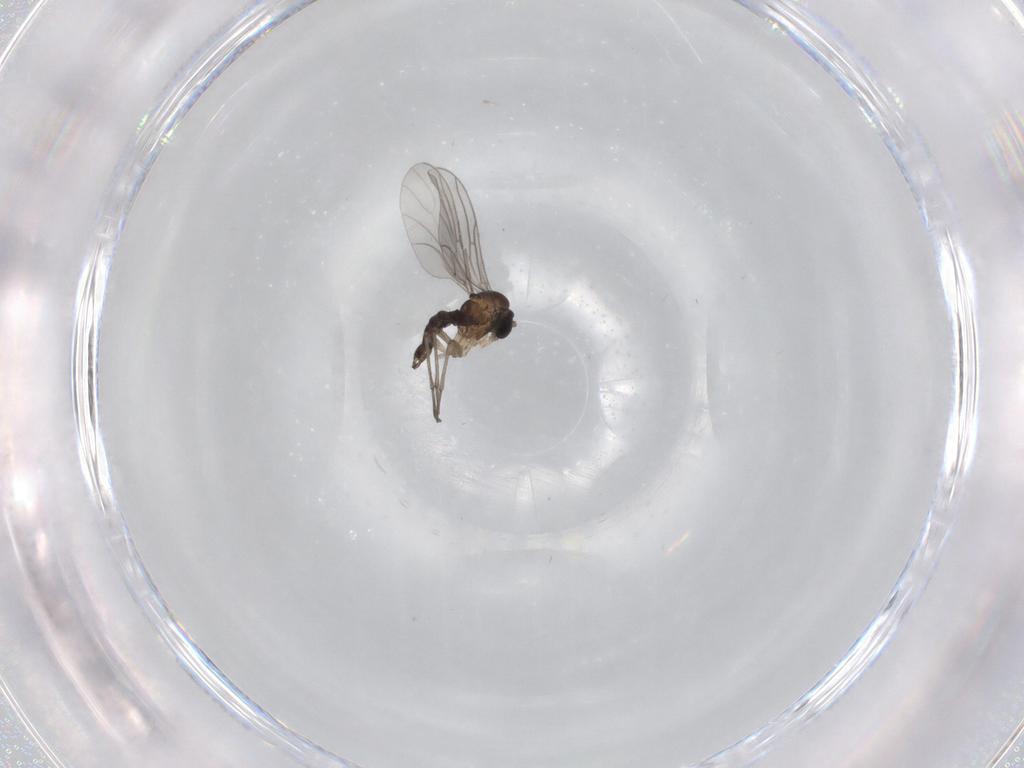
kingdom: Animalia
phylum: Arthropoda
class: Insecta
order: Diptera
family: Sciaridae
